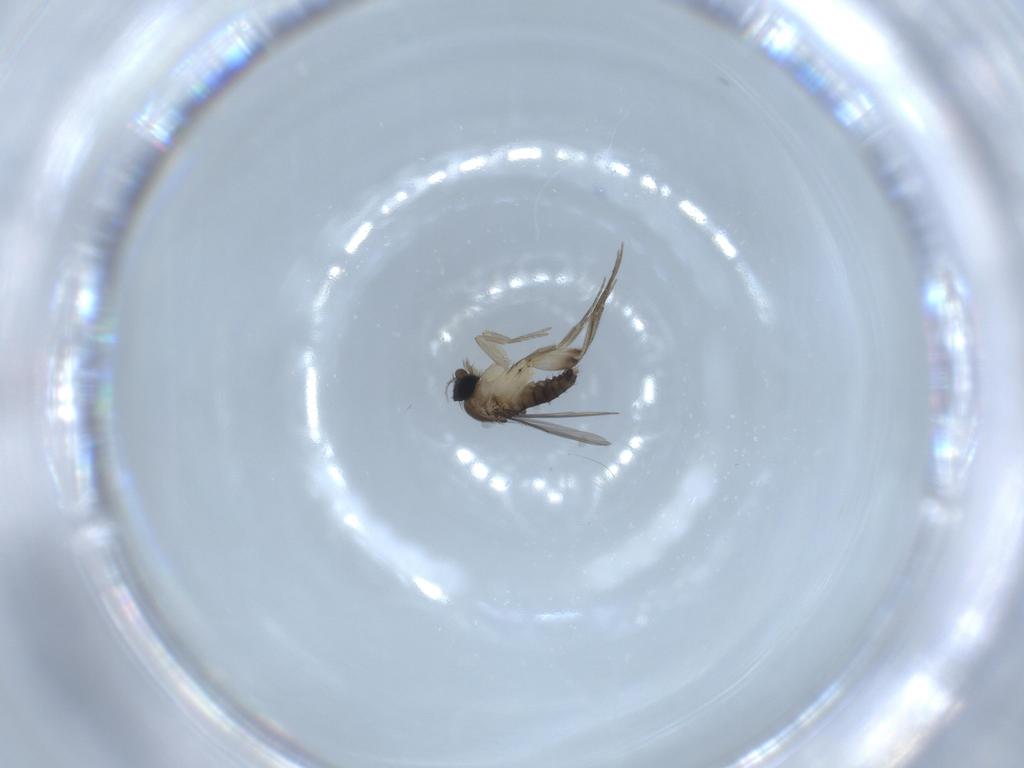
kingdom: Animalia
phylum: Arthropoda
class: Insecta
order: Diptera
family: Phoridae
